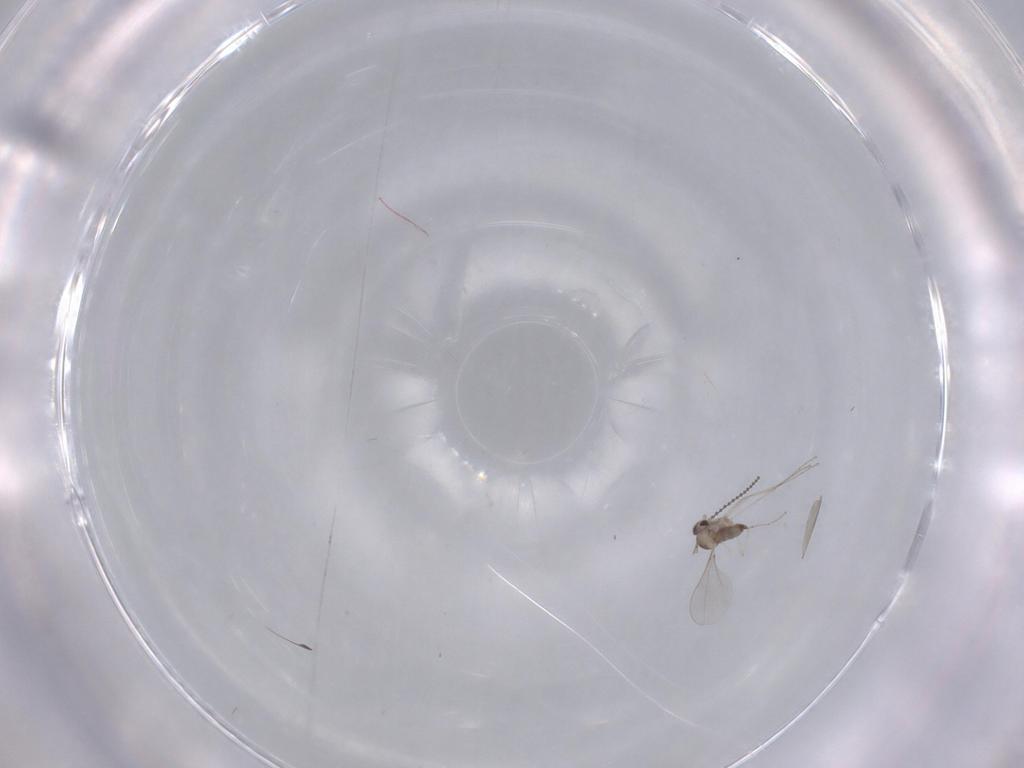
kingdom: Animalia
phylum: Arthropoda
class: Insecta
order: Diptera
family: Cecidomyiidae
